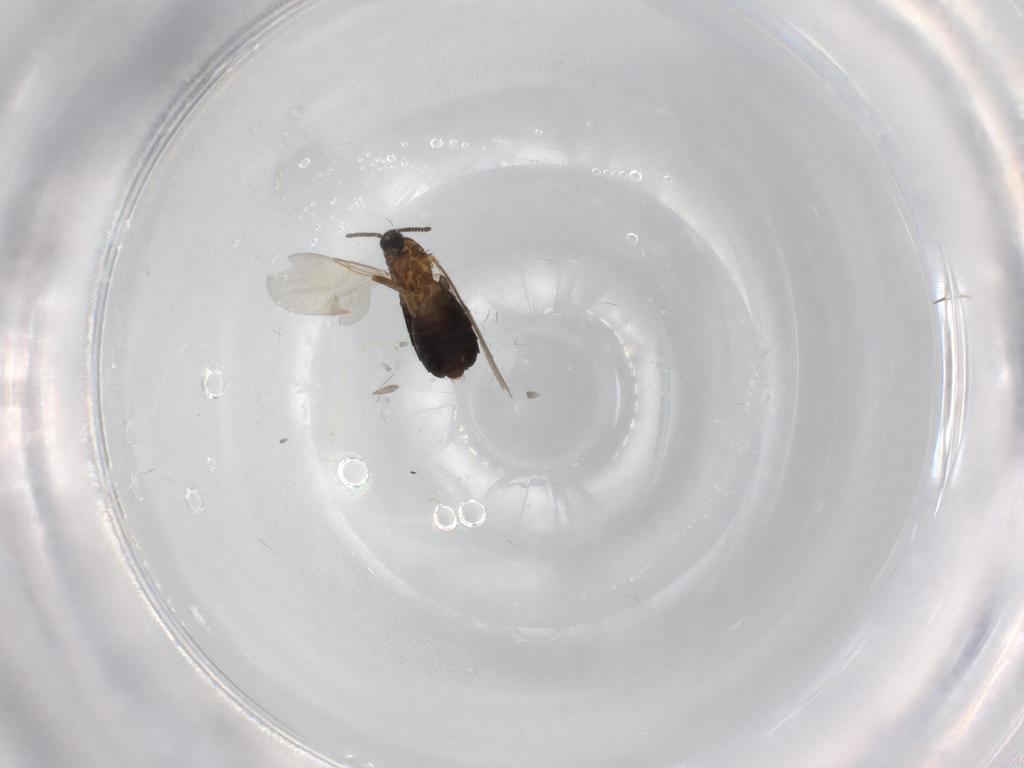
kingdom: Animalia
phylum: Arthropoda
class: Insecta
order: Diptera
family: Scatopsidae
